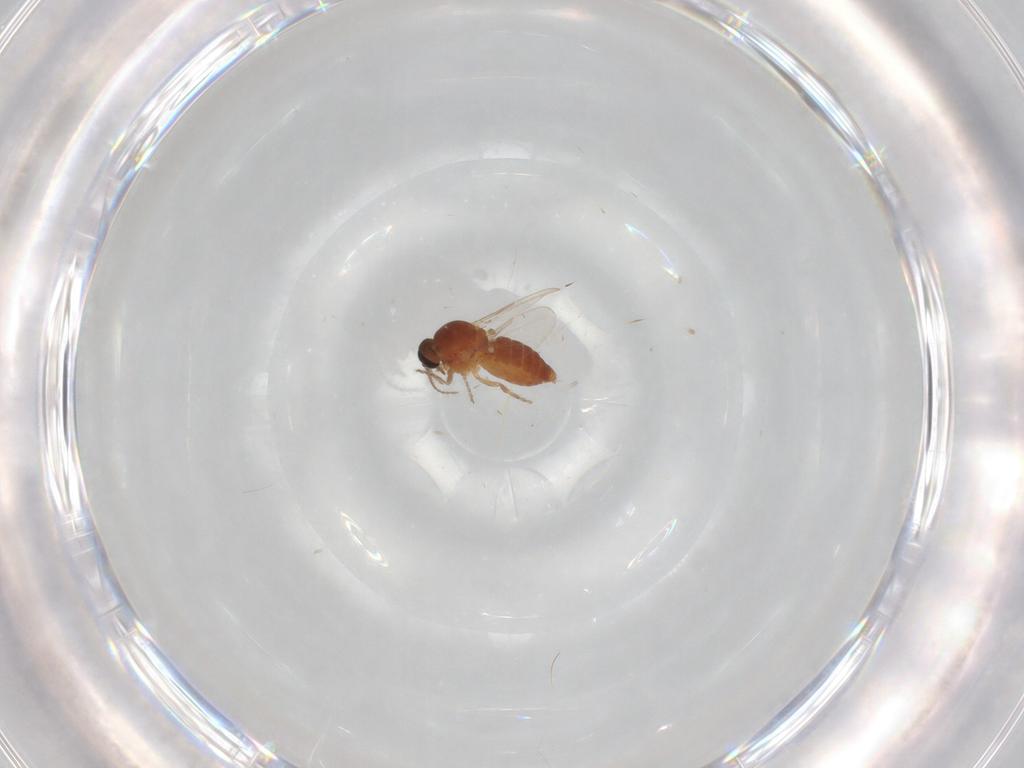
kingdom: Animalia
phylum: Arthropoda
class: Insecta
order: Diptera
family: Ceratopogonidae
